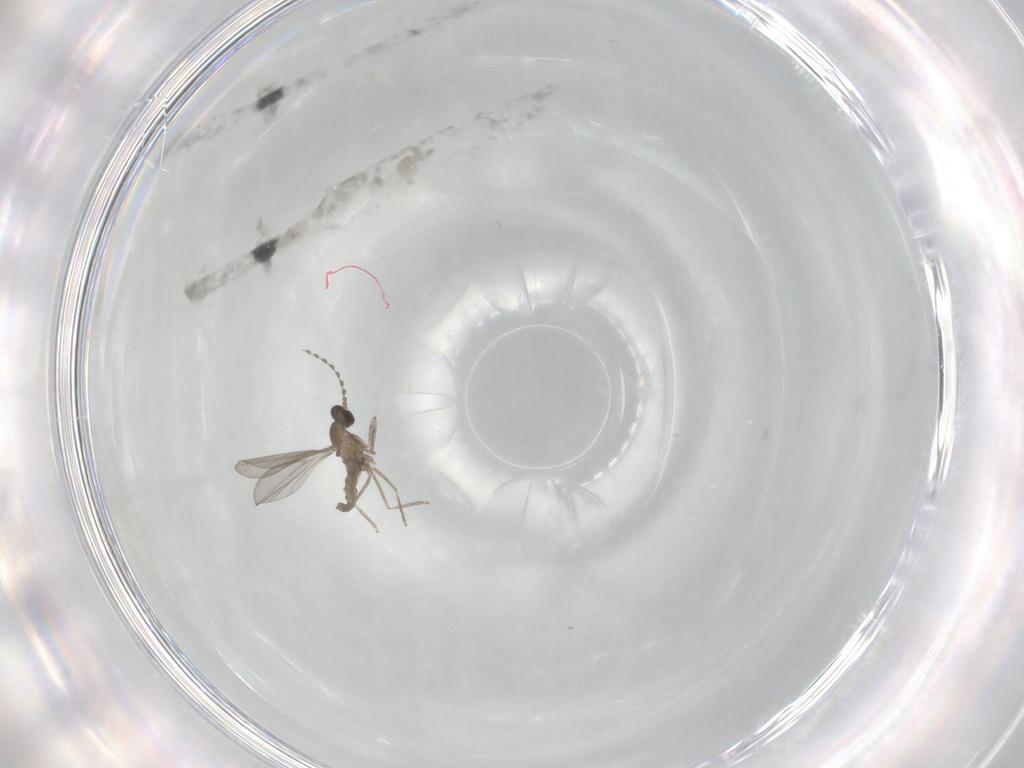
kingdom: Animalia
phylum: Arthropoda
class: Insecta
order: Diptera
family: Cecidomyiidae
